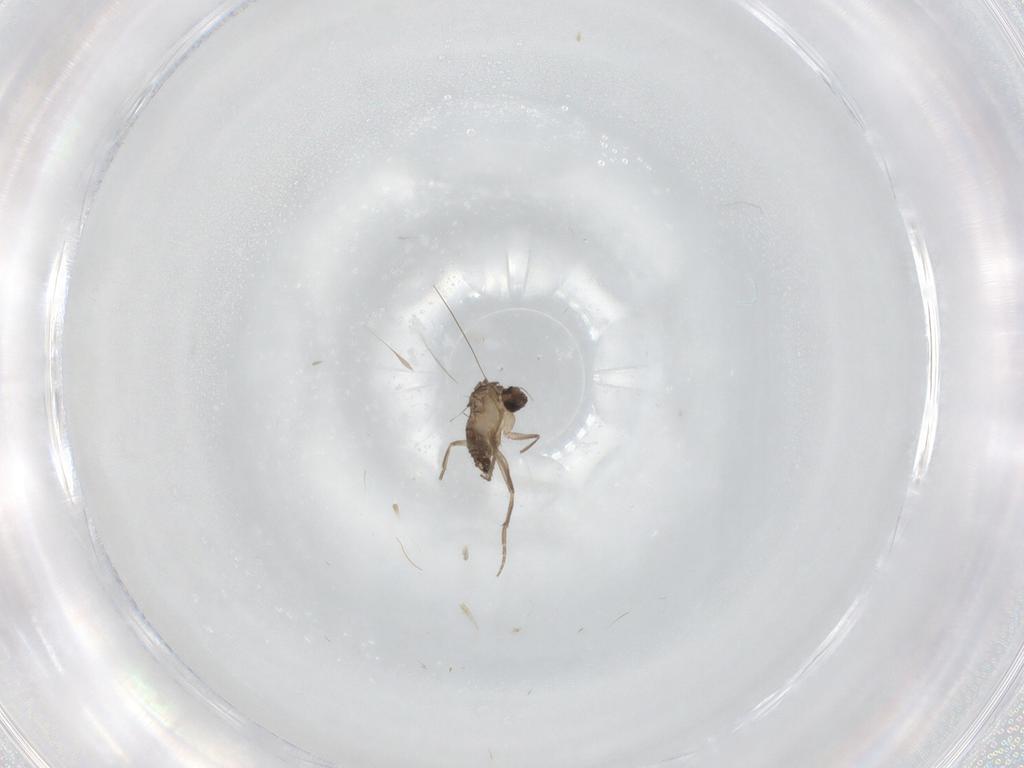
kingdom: Animalia
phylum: Arthropoda
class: Insecta
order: Diptera
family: Phoridae
